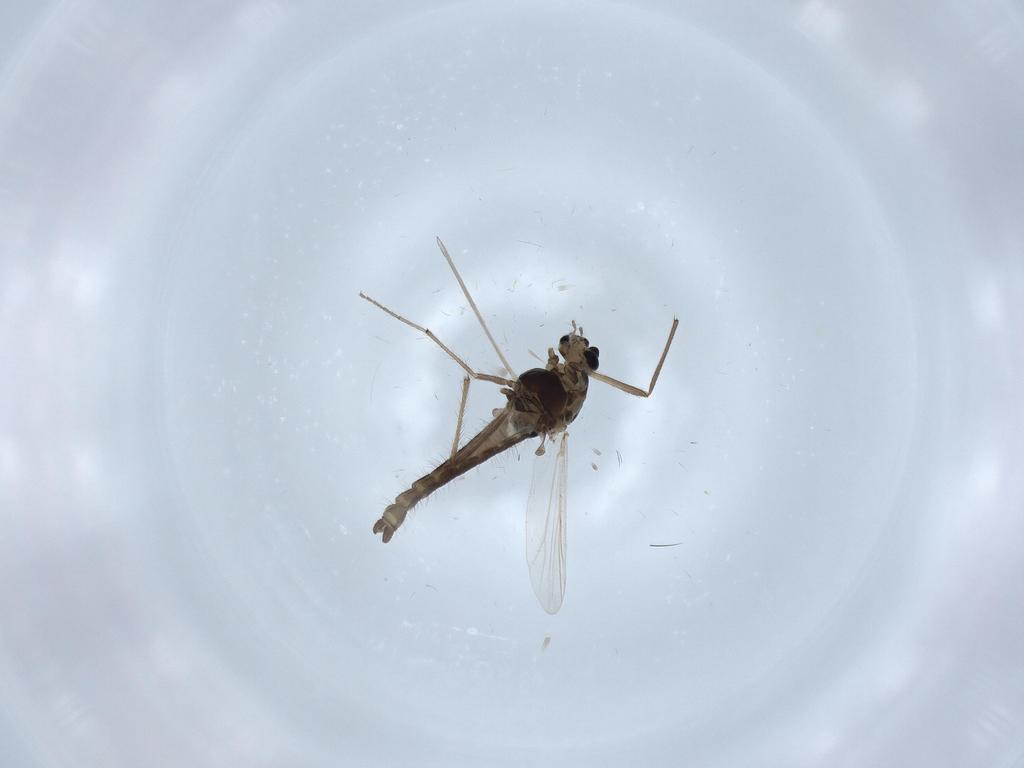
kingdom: Animalia
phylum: Arthropoda
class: Insecta
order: Diptera
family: Chironomidae
